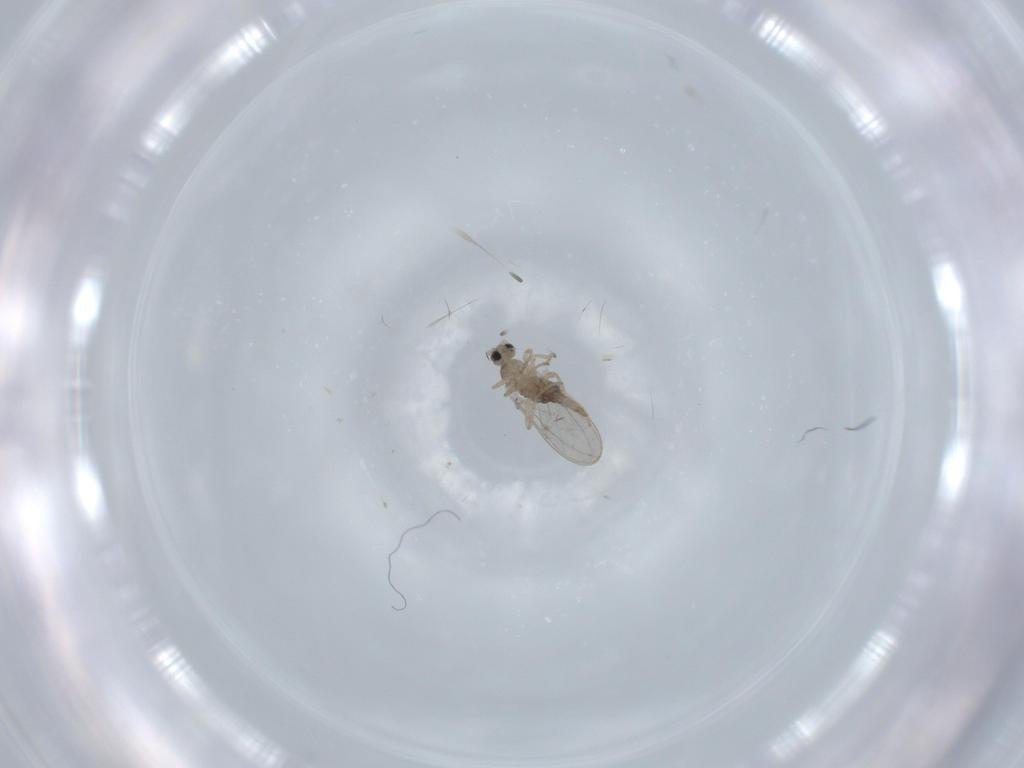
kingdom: Animalia
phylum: Arthropoda
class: Insecta
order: Diptera
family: Cecidomyiidae
